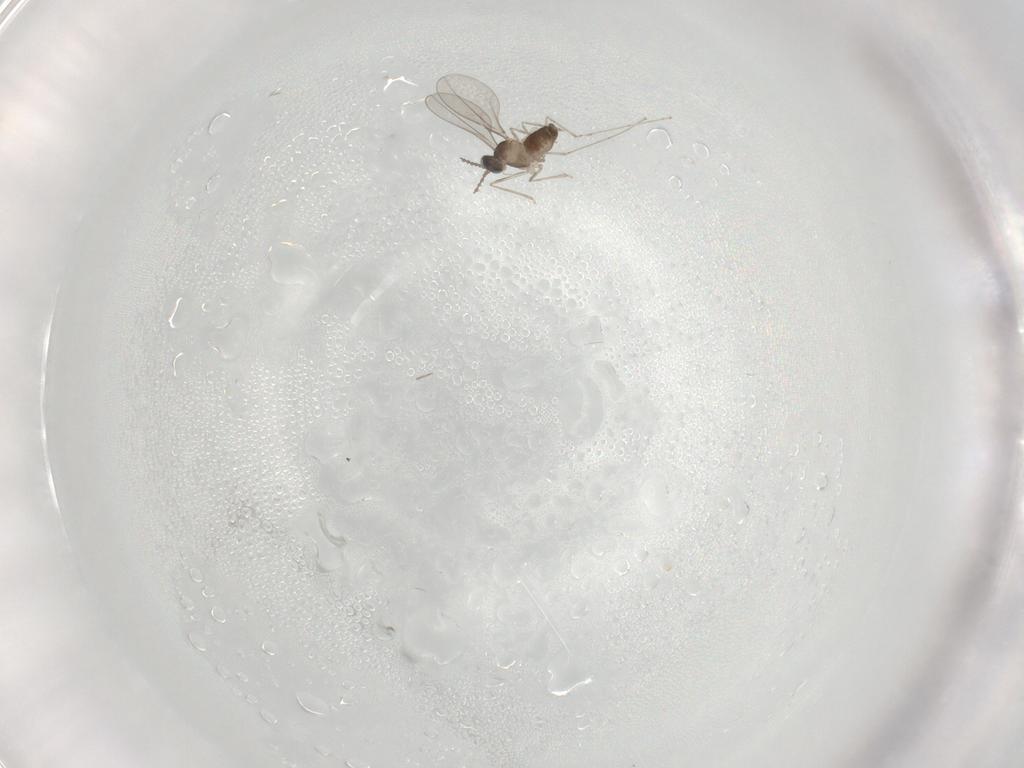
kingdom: Animalia
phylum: Arthropoda
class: Insecta
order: Diptera
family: Cecidomyiidae
